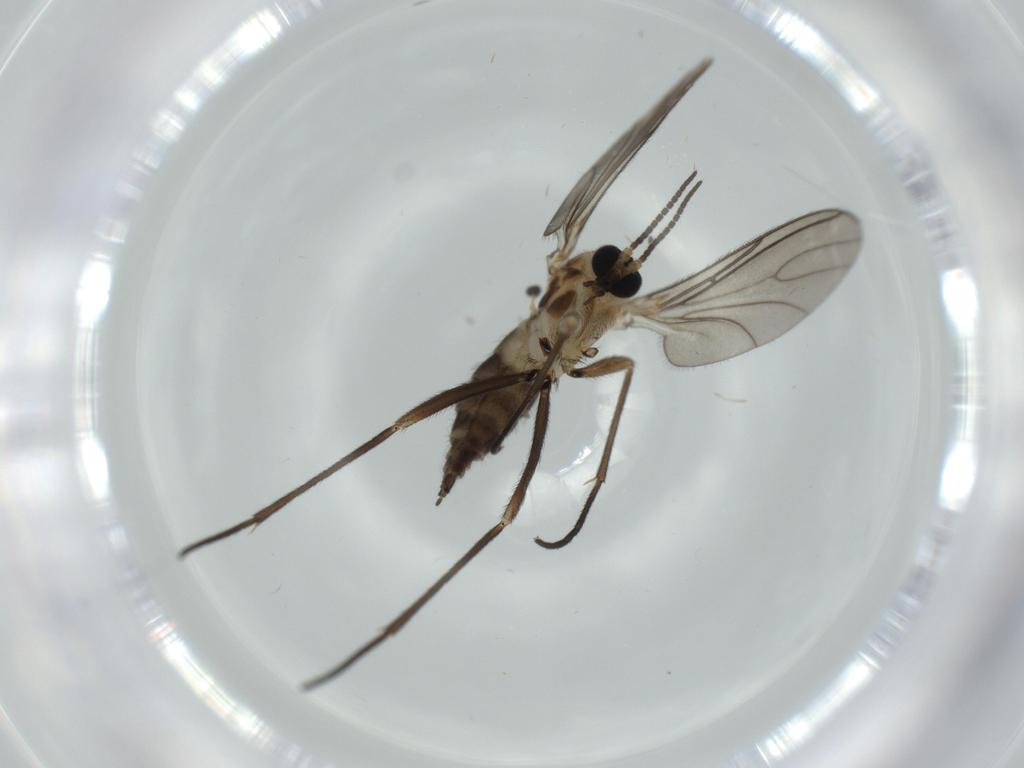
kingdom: Animalia
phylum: Arthropoda
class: Insecta
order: Diptera
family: Sciaridae
